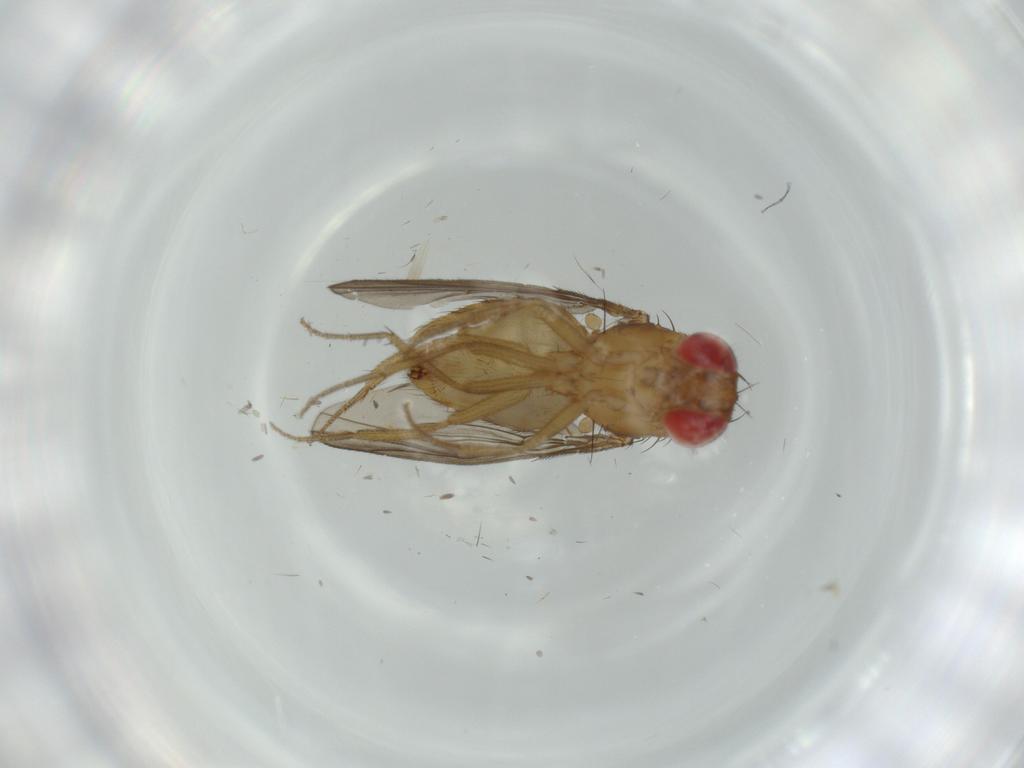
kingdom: Animalia
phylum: Arthropoda
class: Insecta
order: Diptera
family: Drosophilidae
